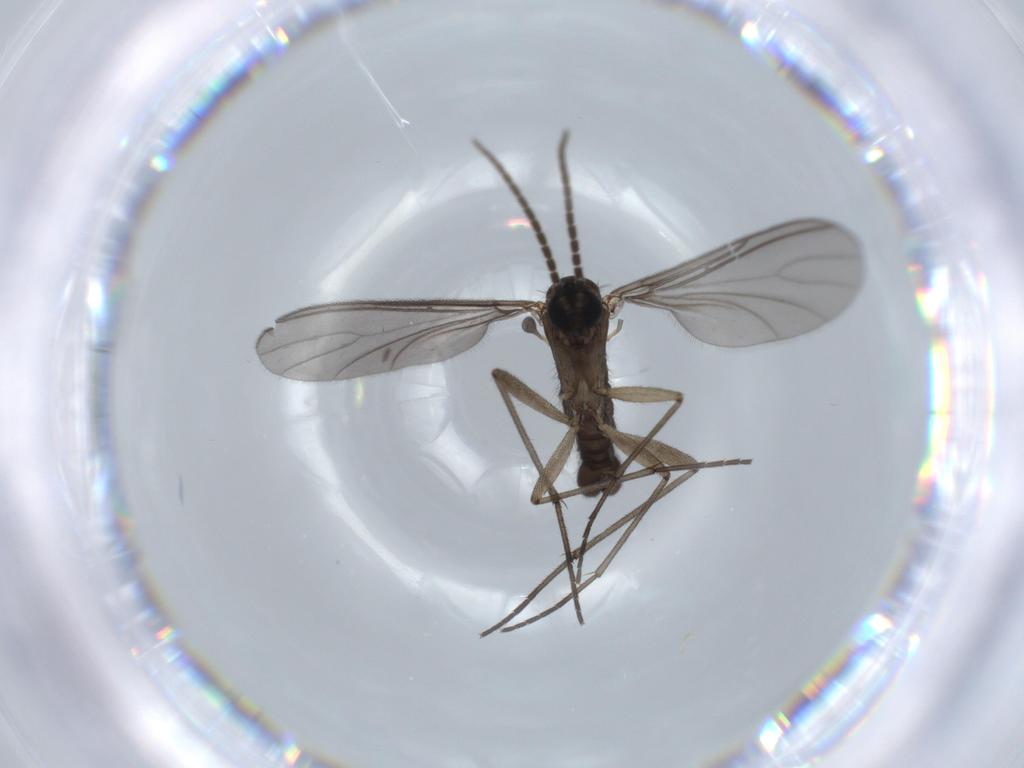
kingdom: Animalia
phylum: Arthropoda
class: Insecta
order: Diptera
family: Sciaridae
